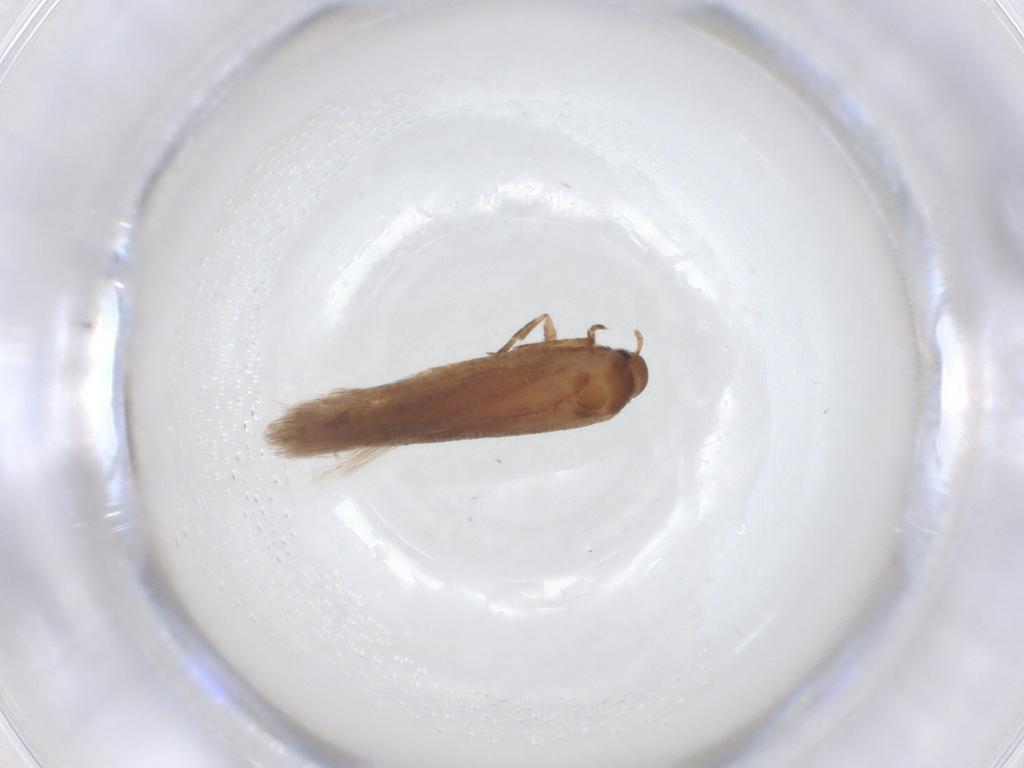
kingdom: Animalia
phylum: Arthropoda
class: Insecta
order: Lepidoptera
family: Gelechiidae
